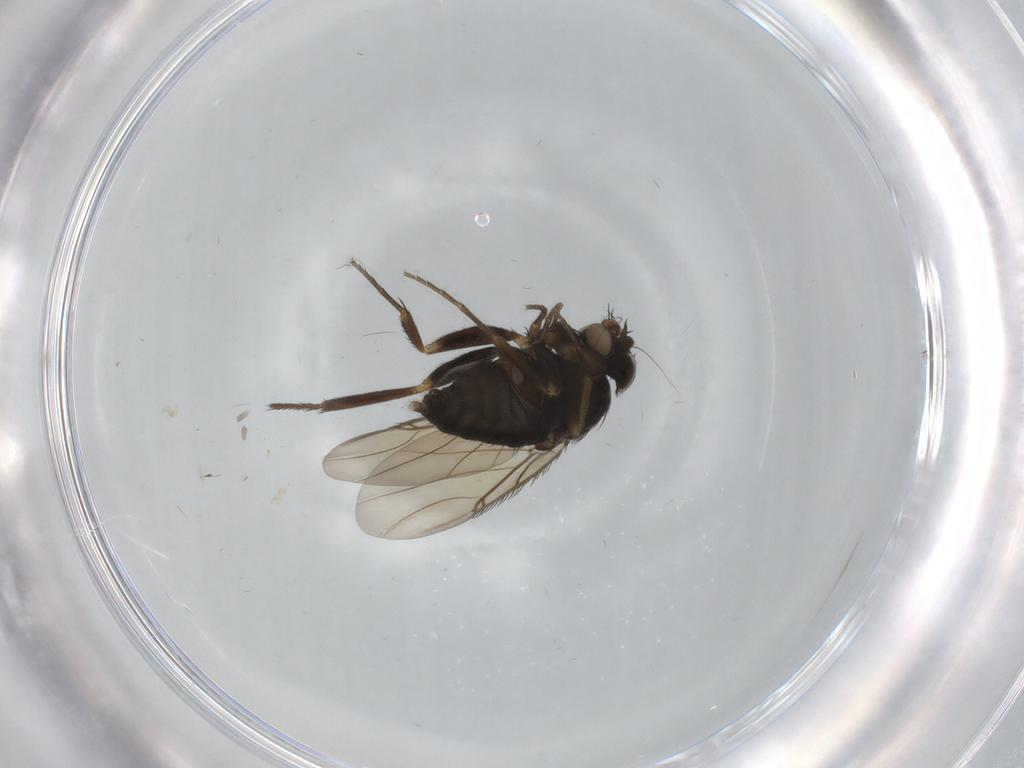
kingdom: Animalia
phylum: Arthropoda
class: Insecta
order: Diptera
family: Phoridae
